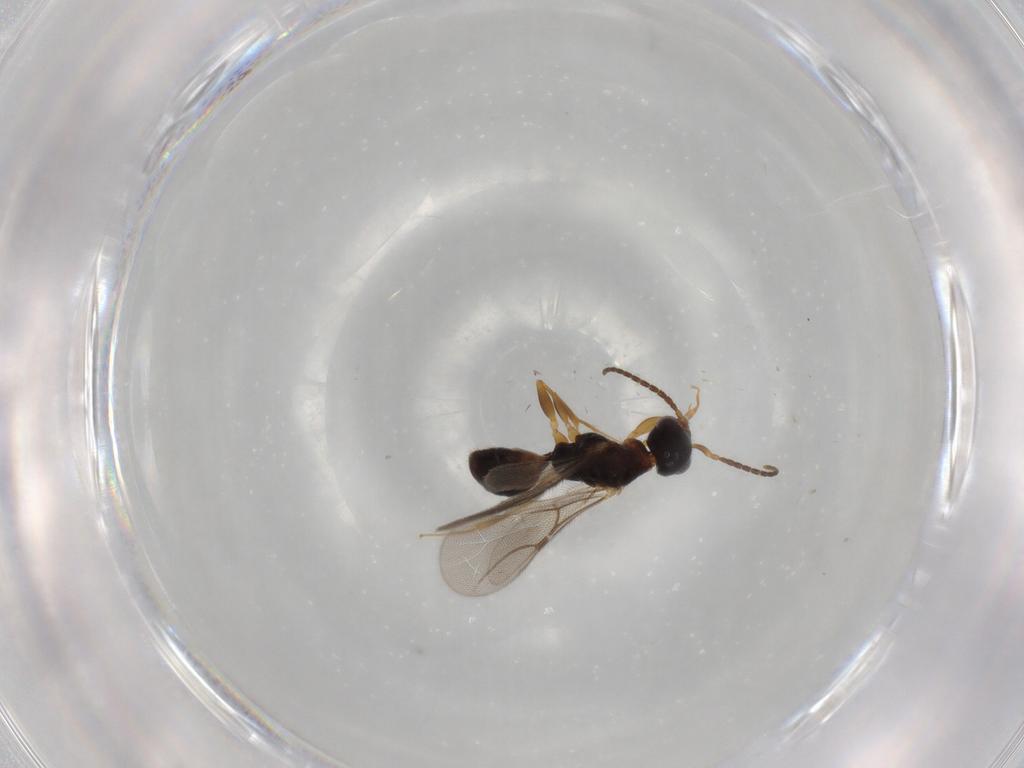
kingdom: Animalia
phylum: Arthropoda
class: Insecta
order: Hymenoptera
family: Bethylidae
